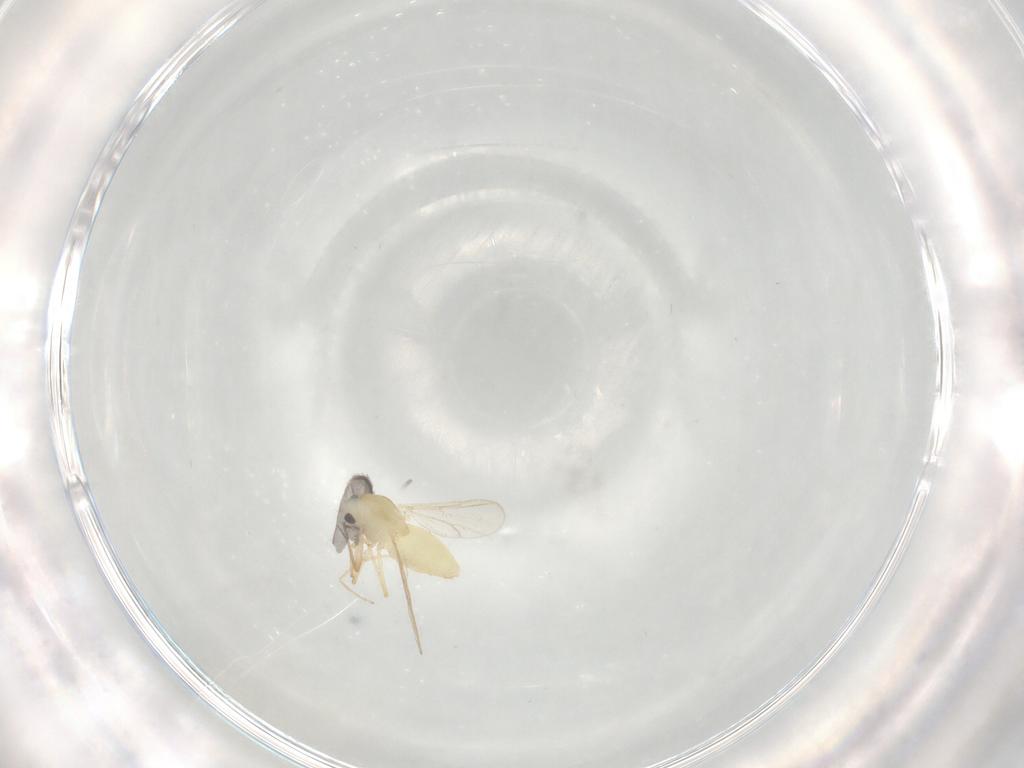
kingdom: Animalia
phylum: Arthropoda
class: Insecta
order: Diptera
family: Chironomidae
